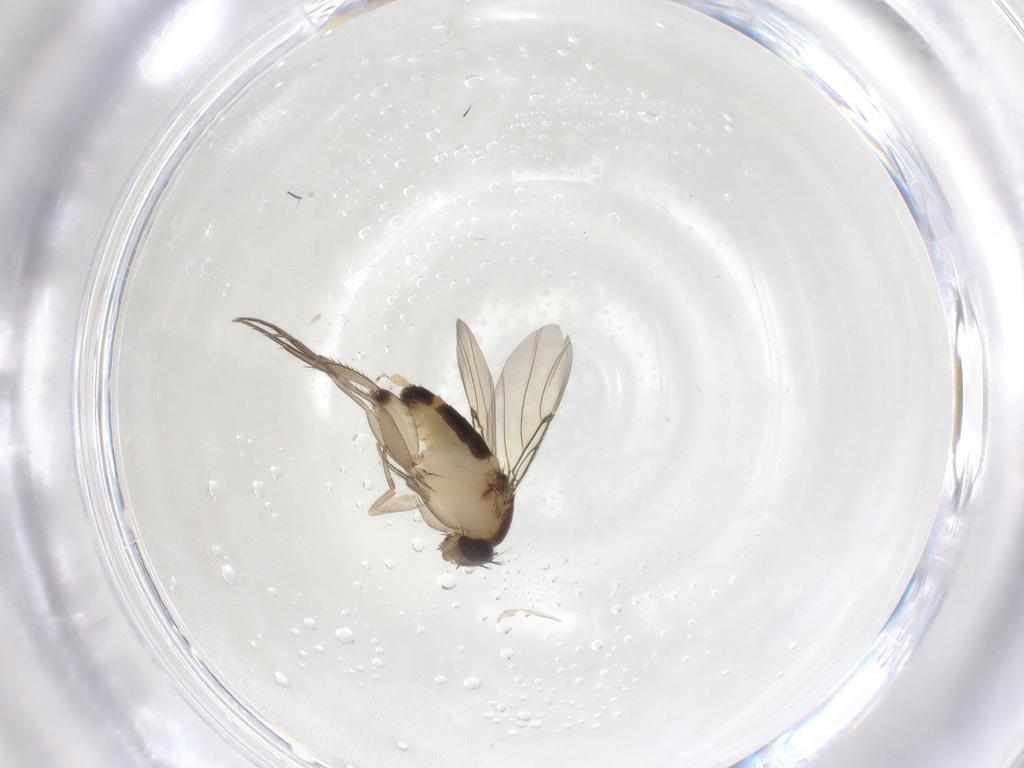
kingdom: Animalia
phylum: Arthropoda
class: Insecta
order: Diptera
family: Phoridae
